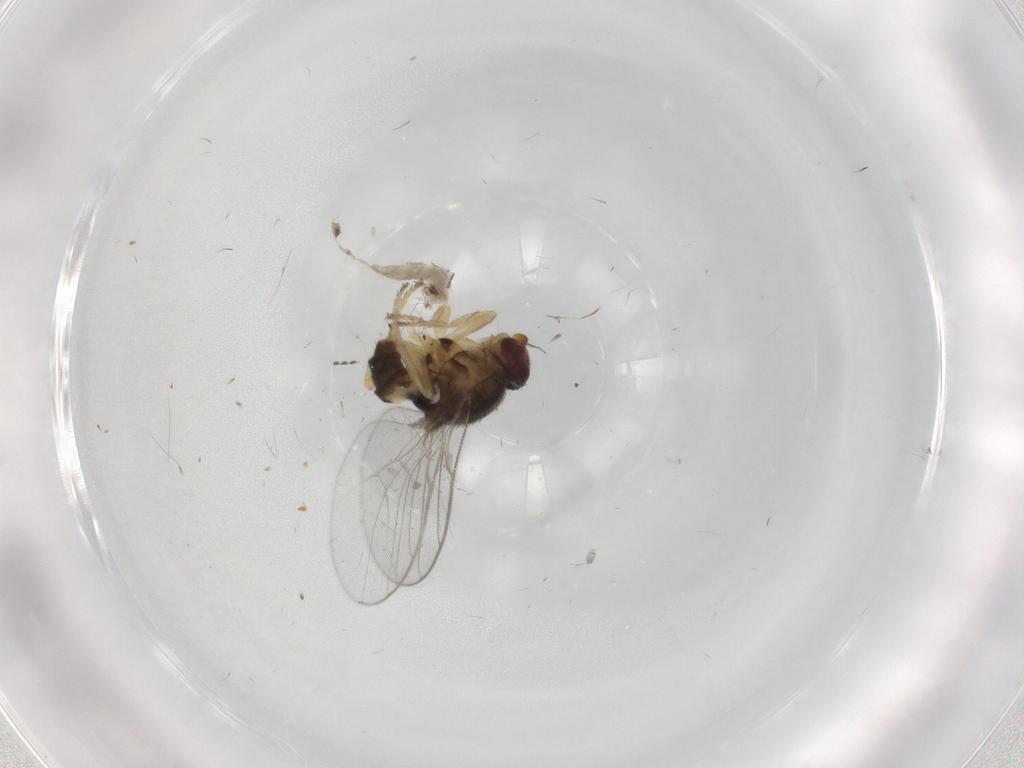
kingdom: Animalia
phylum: Arthropoda
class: Insecta
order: Diptera
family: Chloropidae
